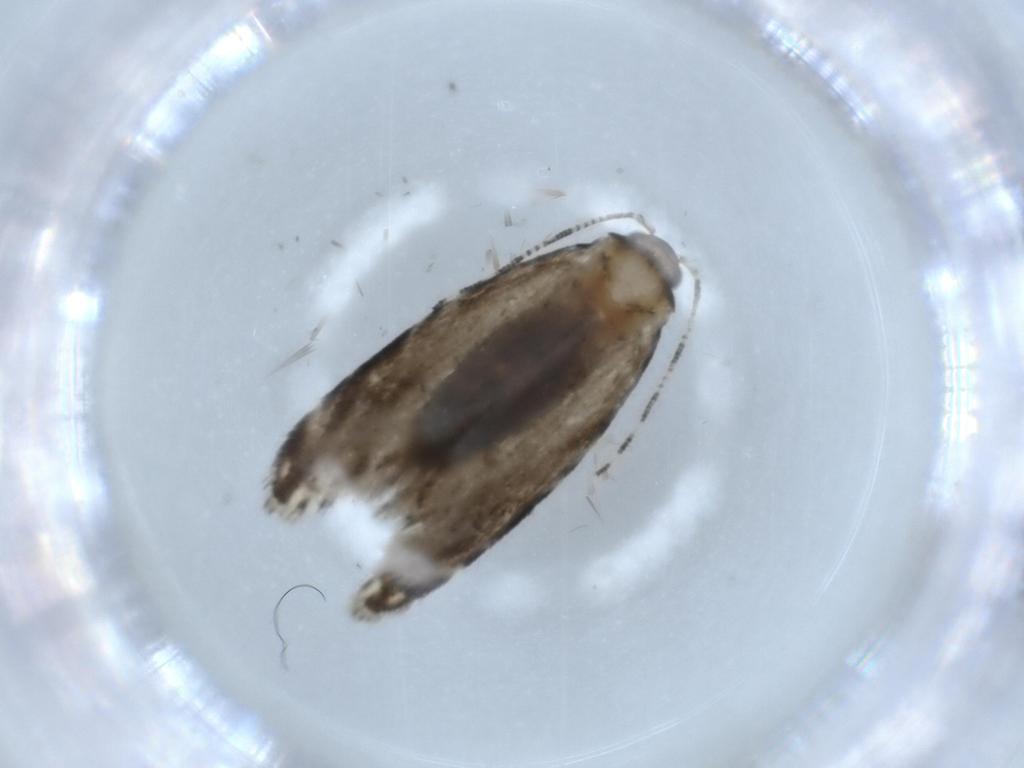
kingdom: Animalia
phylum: Arthropoda
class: Insecta
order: Lepidoptera
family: Gracillariidae
